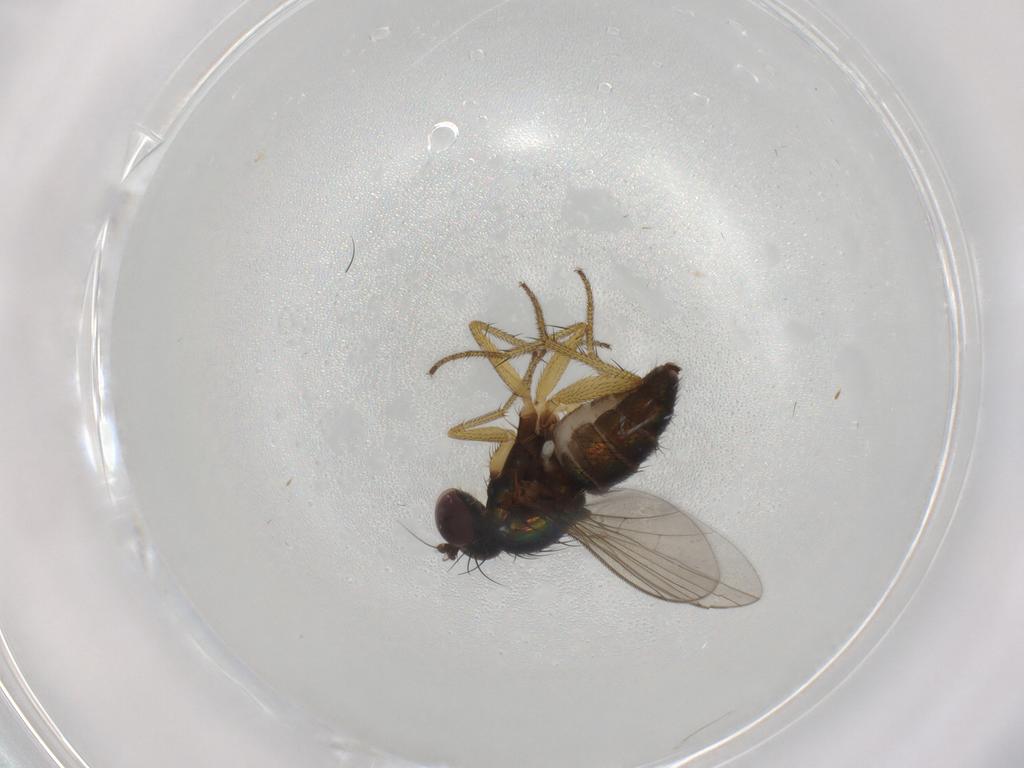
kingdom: Animalia
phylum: Arthropoda
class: Insecta
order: Diptera
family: Dolichopodidae
